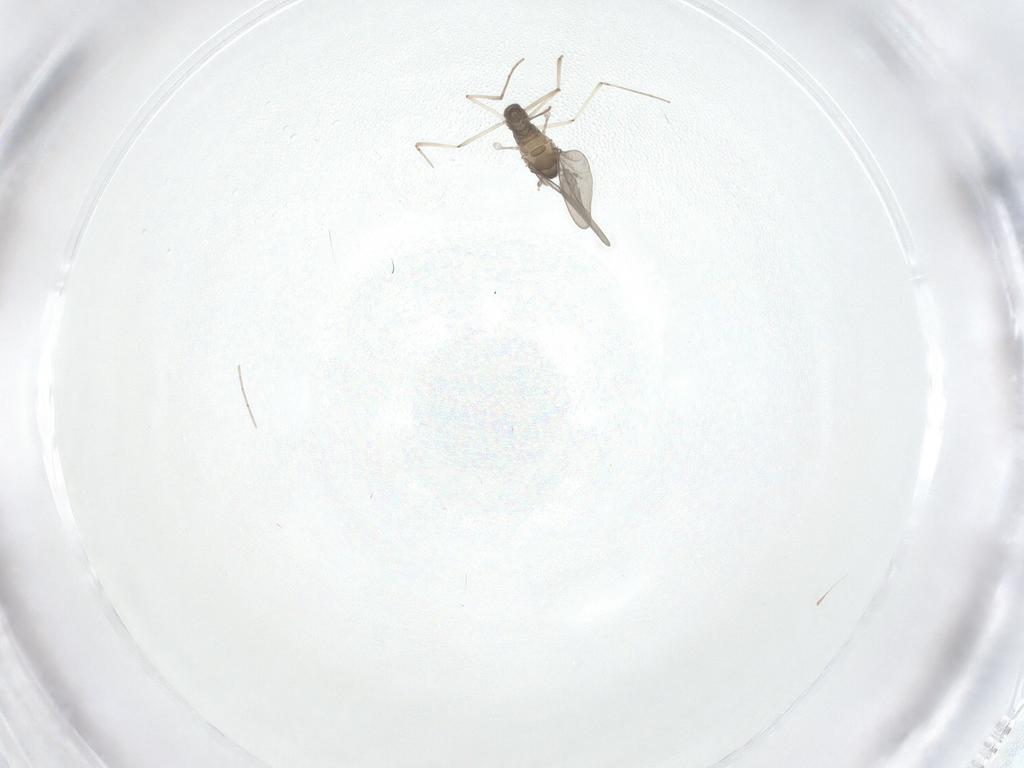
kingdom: Animalia
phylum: Arthropoda
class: Insecta
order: Diptera
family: Cecidomyiidae
